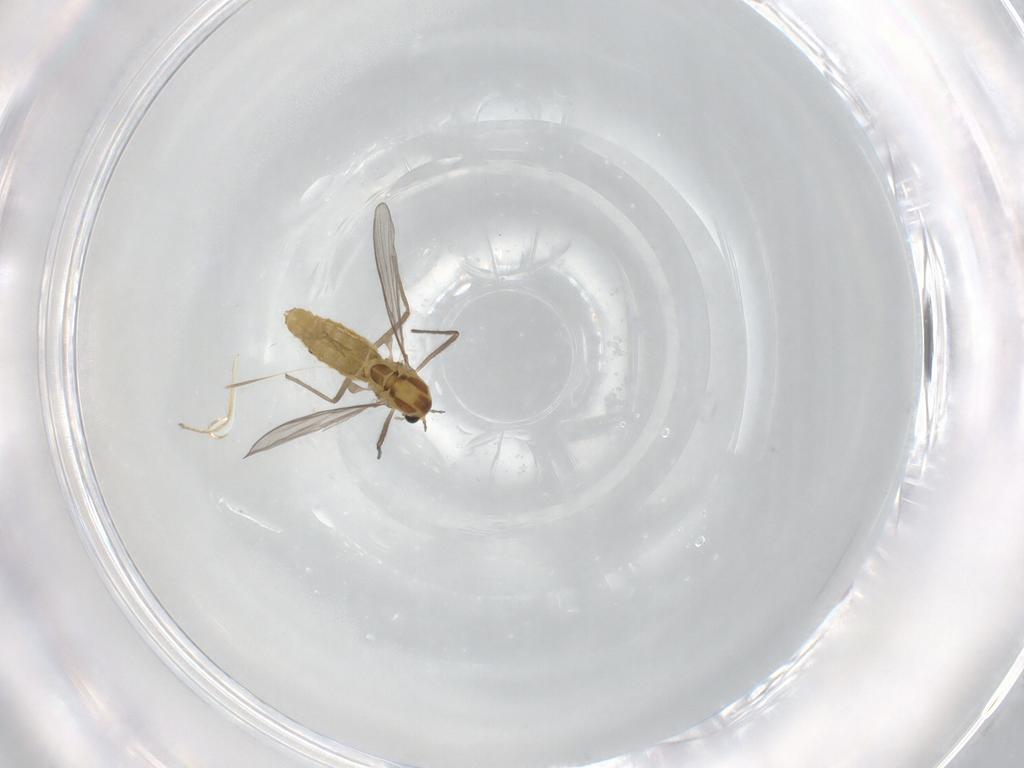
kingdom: Animalia
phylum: Arthropoda
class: Insecta
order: Diptera
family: Chironomidae
